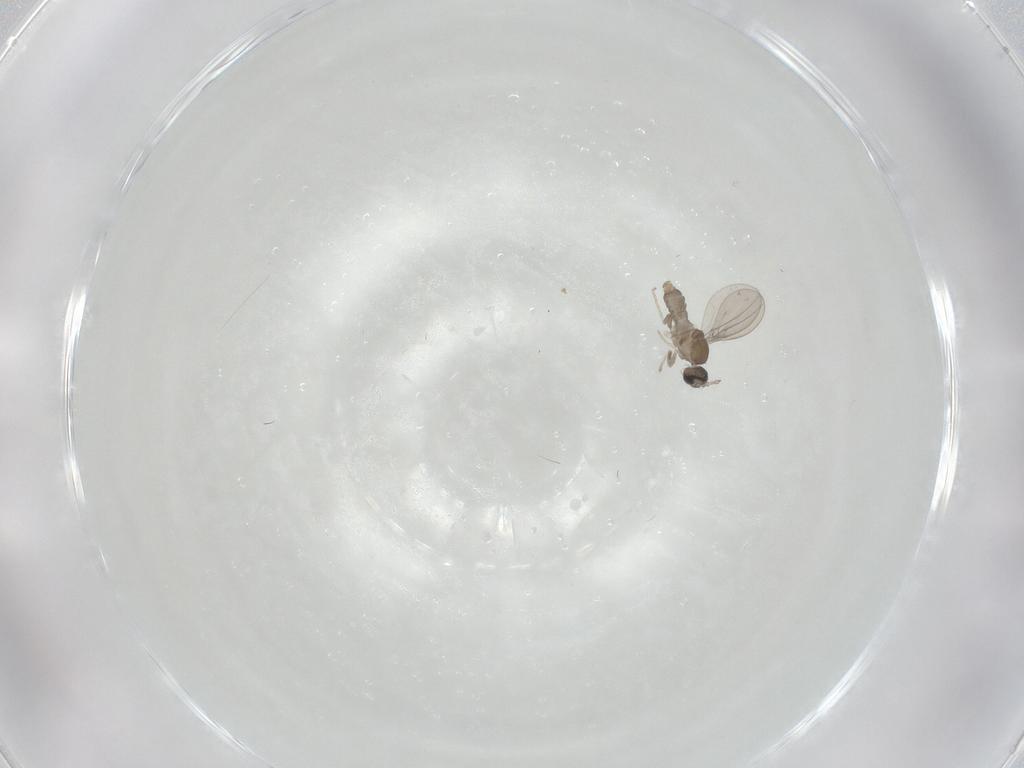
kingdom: Animalia
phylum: Arthropoda
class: Insecta
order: Diptera
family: Cecidomyiidae
